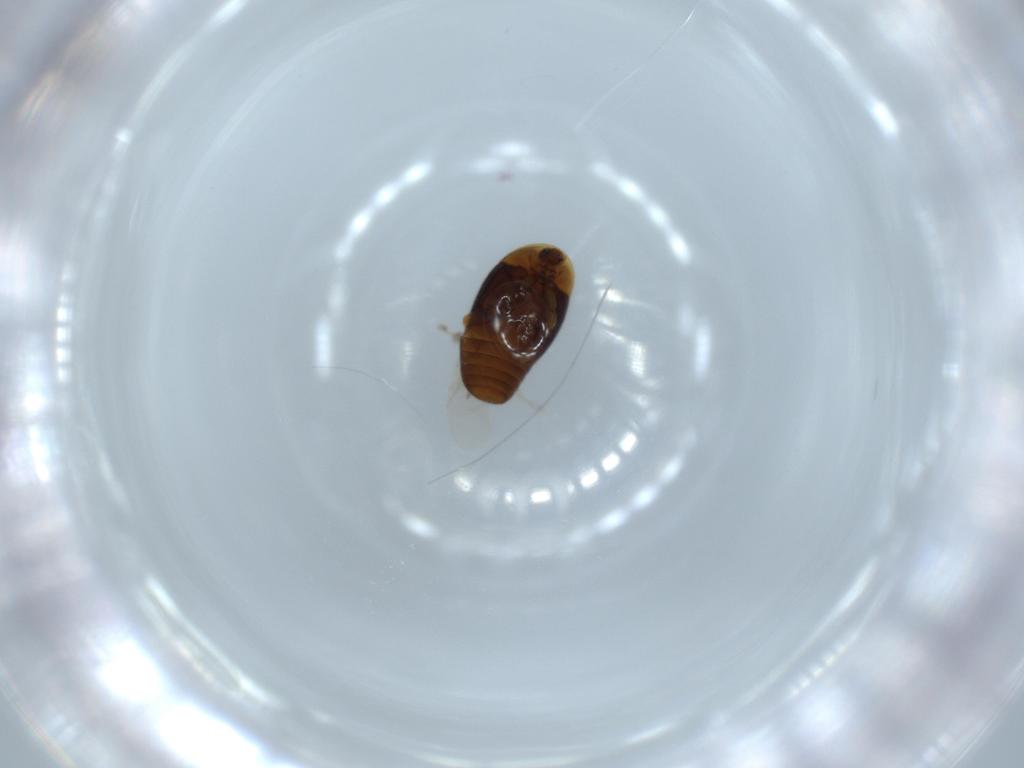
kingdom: Animalia
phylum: Arthropoda
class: Insecta
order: Coleoptera
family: Corylophidae
